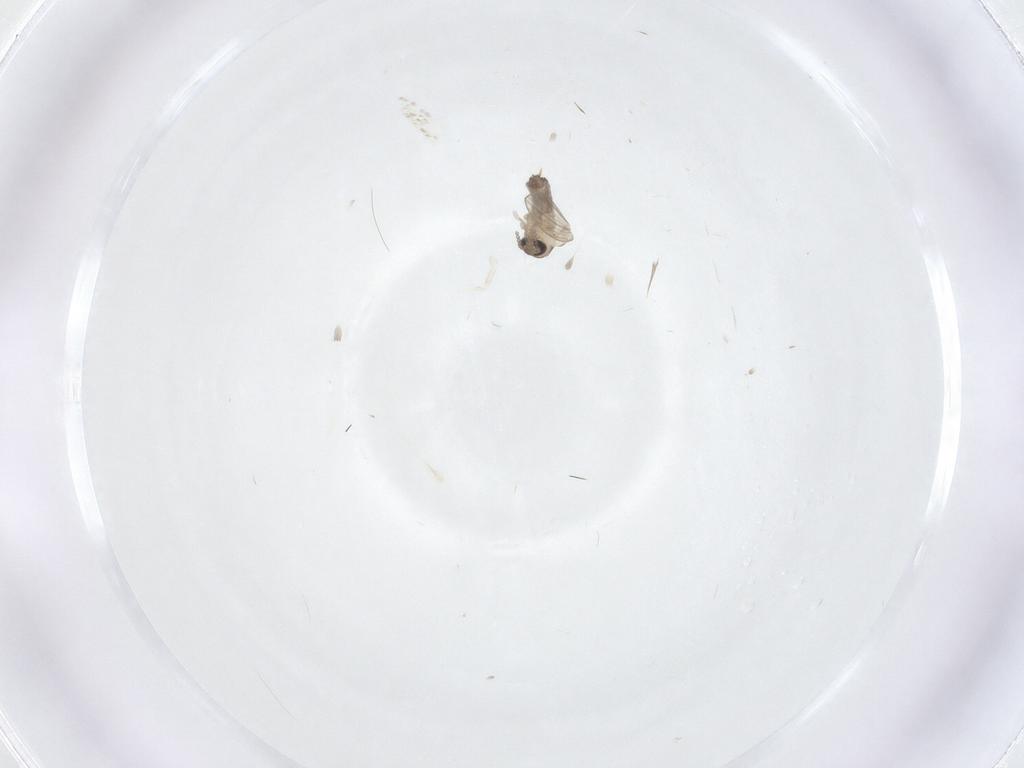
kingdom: Animalia
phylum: Arthropoda
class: Insecta
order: Diptera
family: Psychodidae
